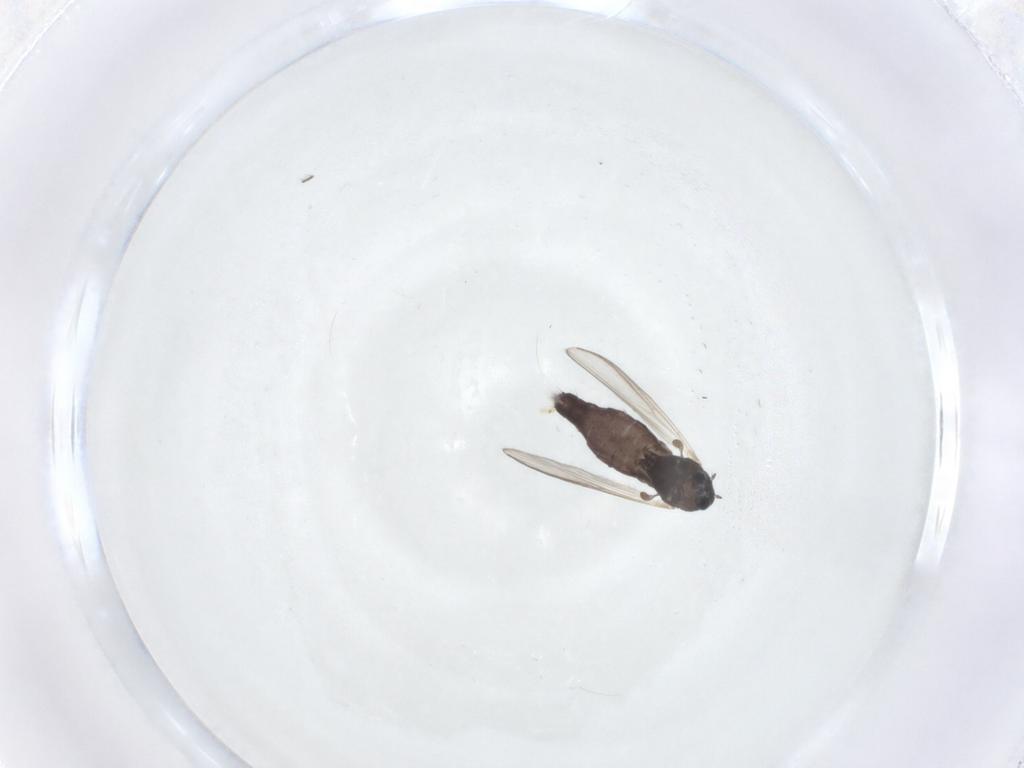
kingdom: Animalia
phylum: Arthropoda
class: Insecta
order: Diptera
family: Chironomidae
